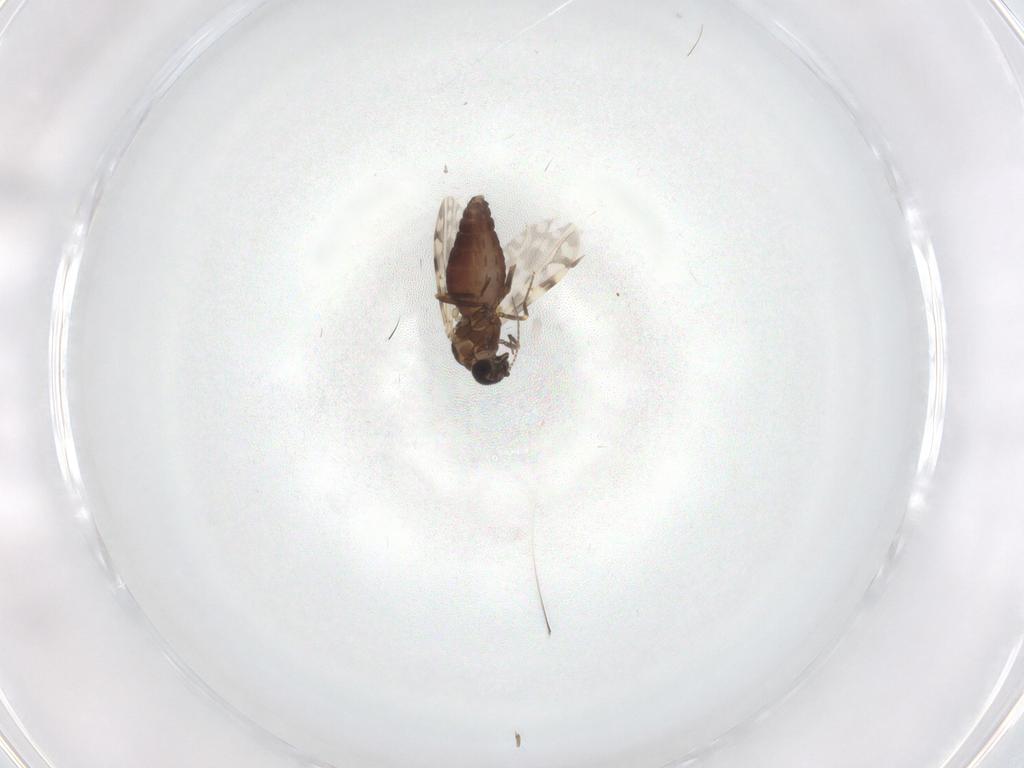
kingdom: Animalia
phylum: Arthropoda
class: Insecta
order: Diptera
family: Ceratopogonidae
